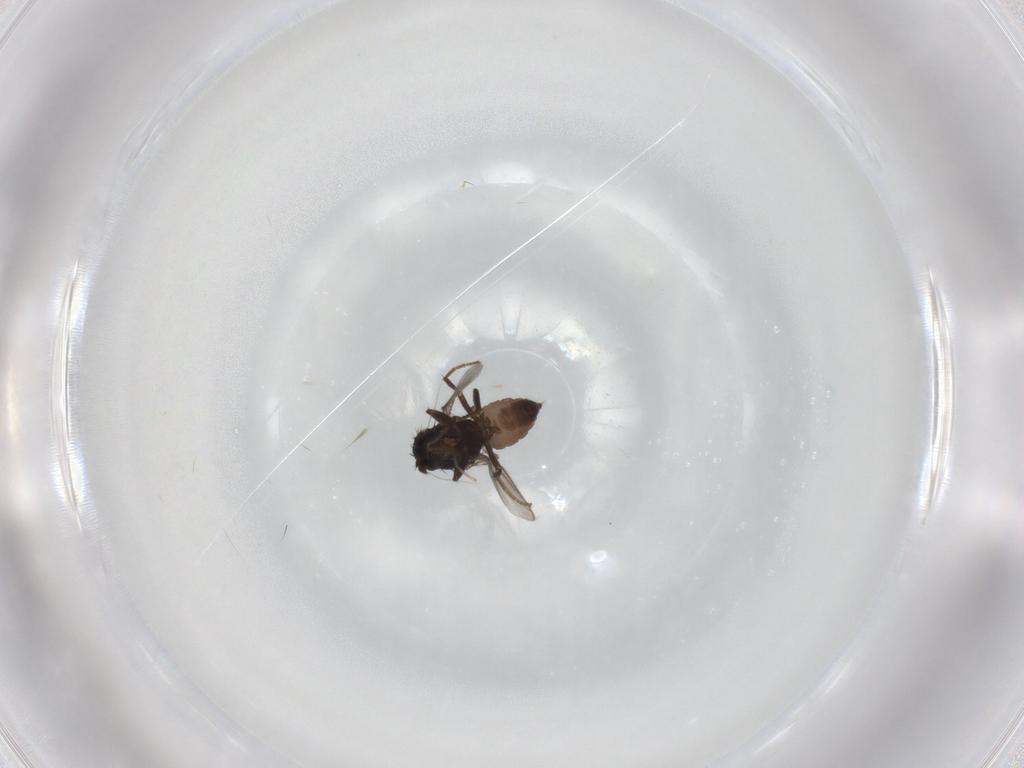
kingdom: Animalia
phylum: Arthropoda
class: Insecta
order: Diptera
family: Cecidomyiidae
